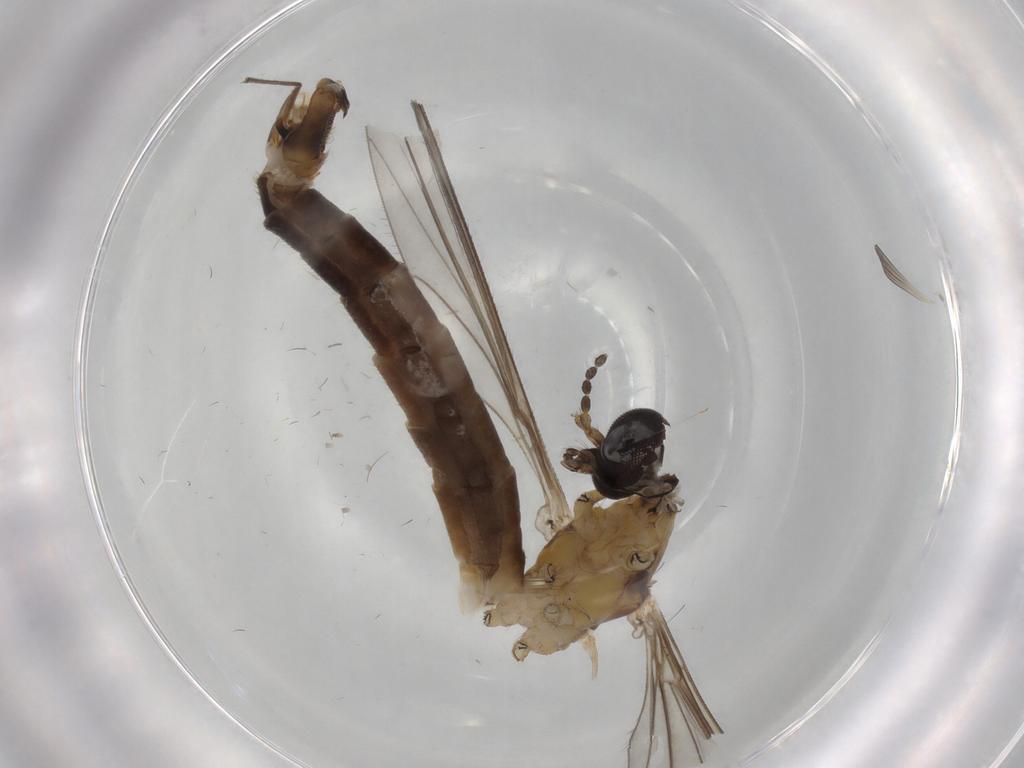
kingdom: Animalia
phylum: Arthropoda
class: Insecta
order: Diptera
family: Limoniidae
